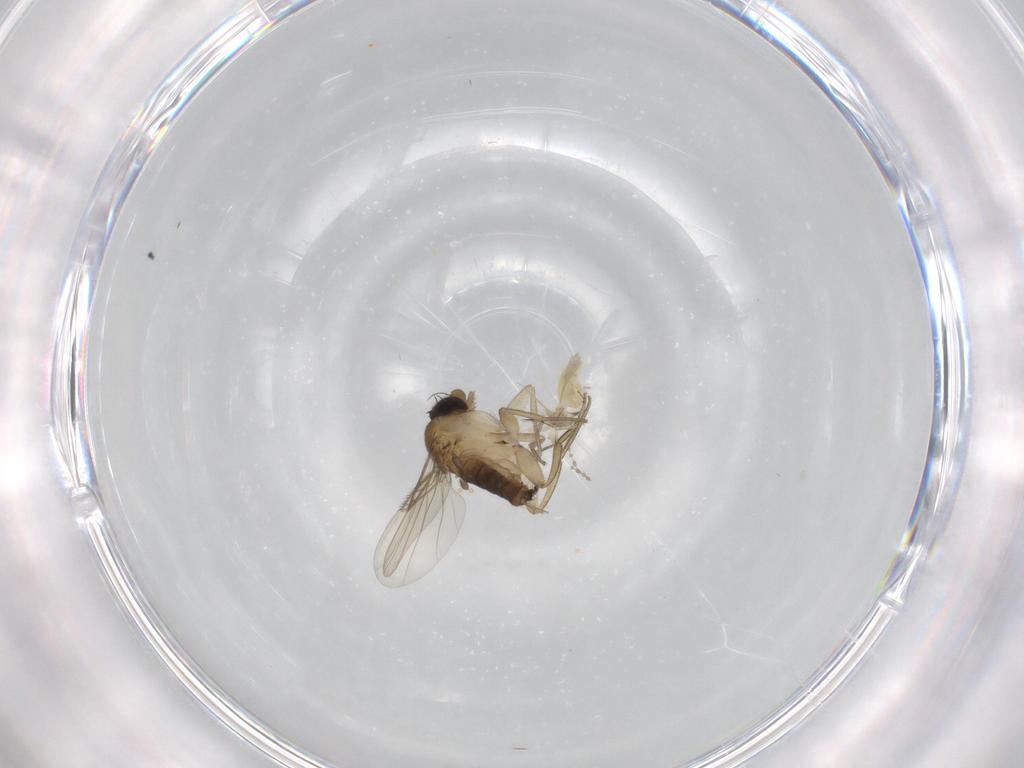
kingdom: Animalia
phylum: Arthropoda
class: Insecta
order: Diptera
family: Cecidomyiidae
